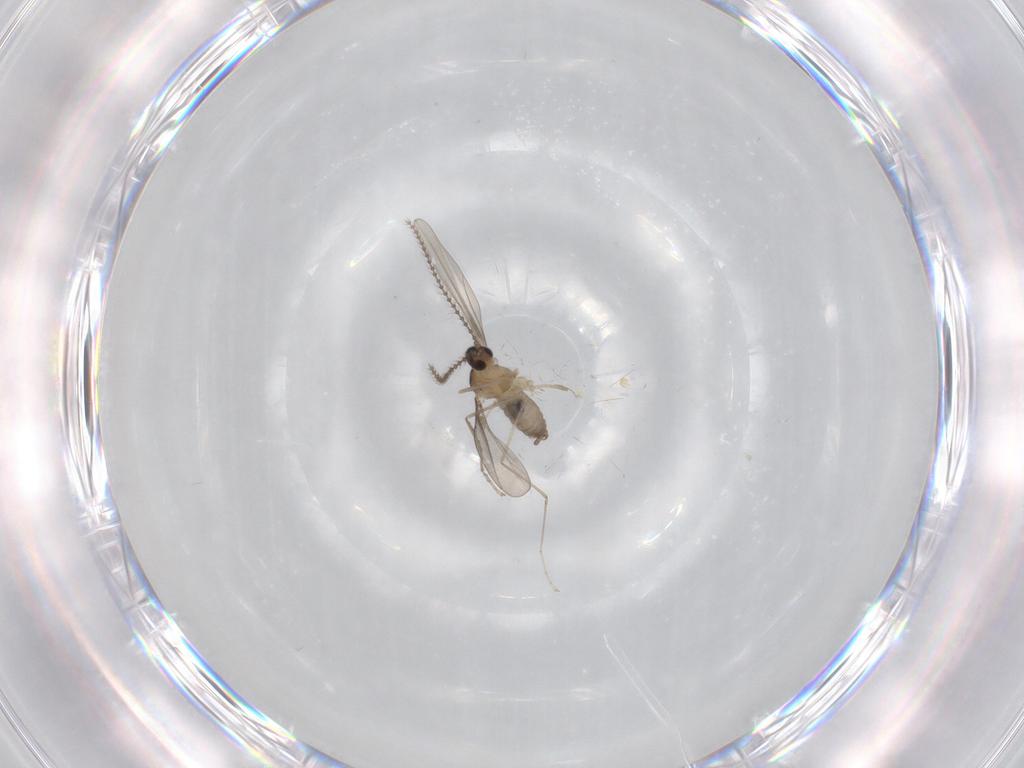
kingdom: Animalia
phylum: Arthropoda
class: Insecta
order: Diptera
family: Cecidomyiidae
